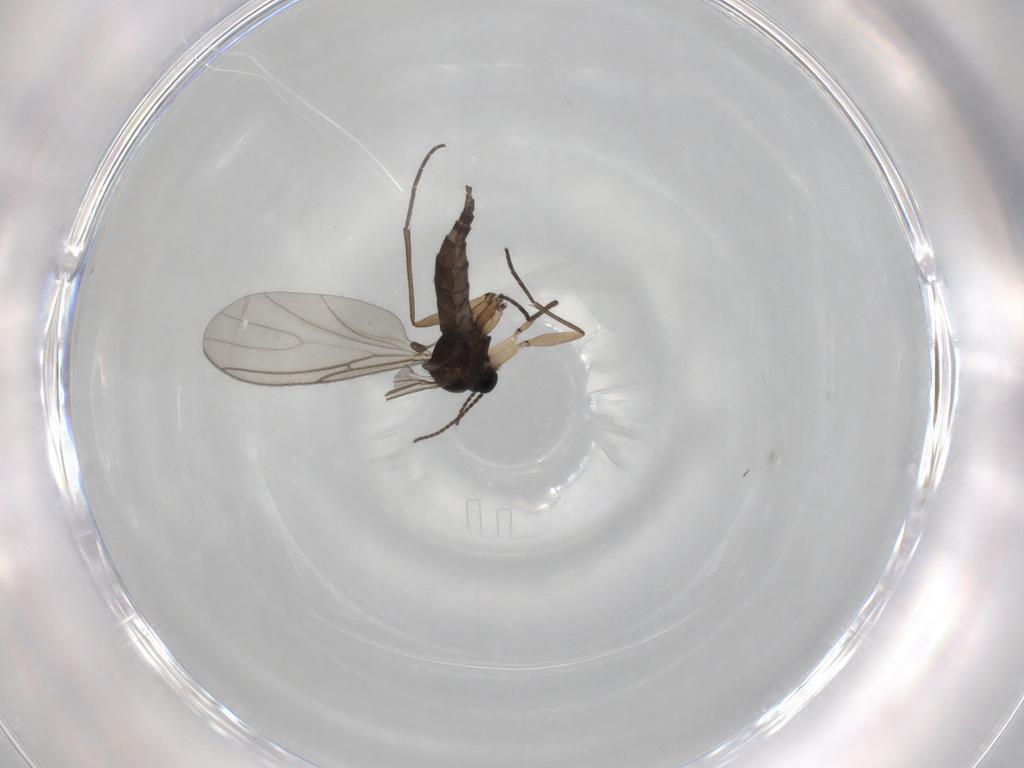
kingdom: Animalia
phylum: Arthropoda
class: Insecta
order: Diptera
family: Sciaridae
